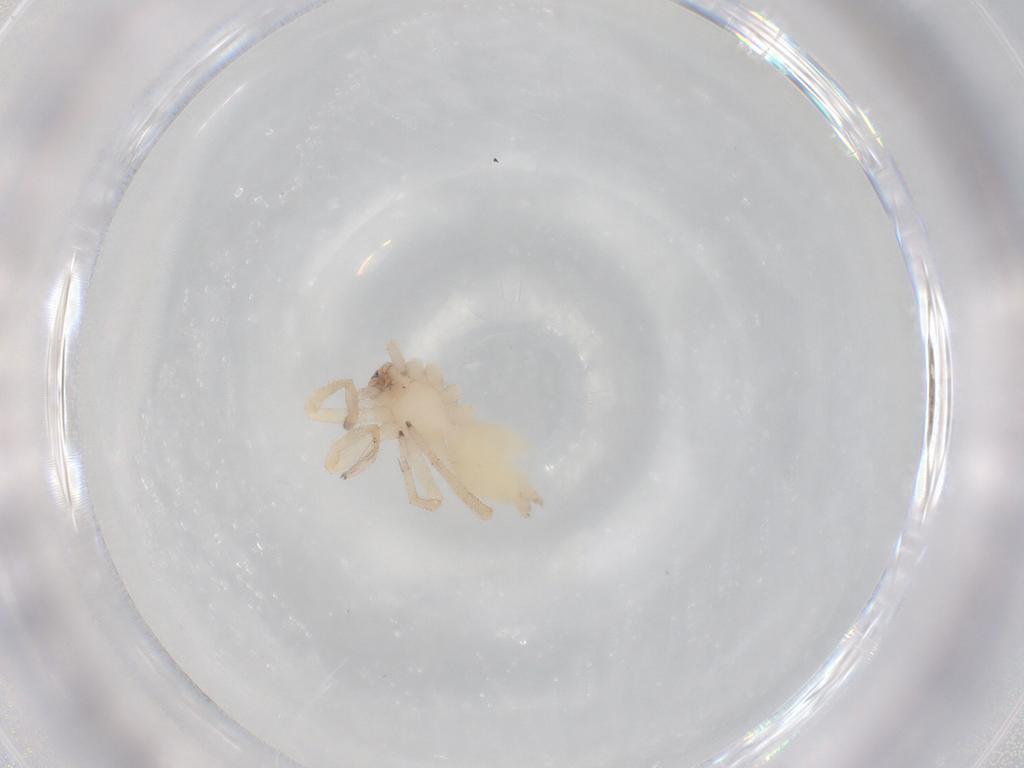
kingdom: Animalia
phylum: Arthropoda
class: Arachnida
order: Araneae
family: Clubionidae
